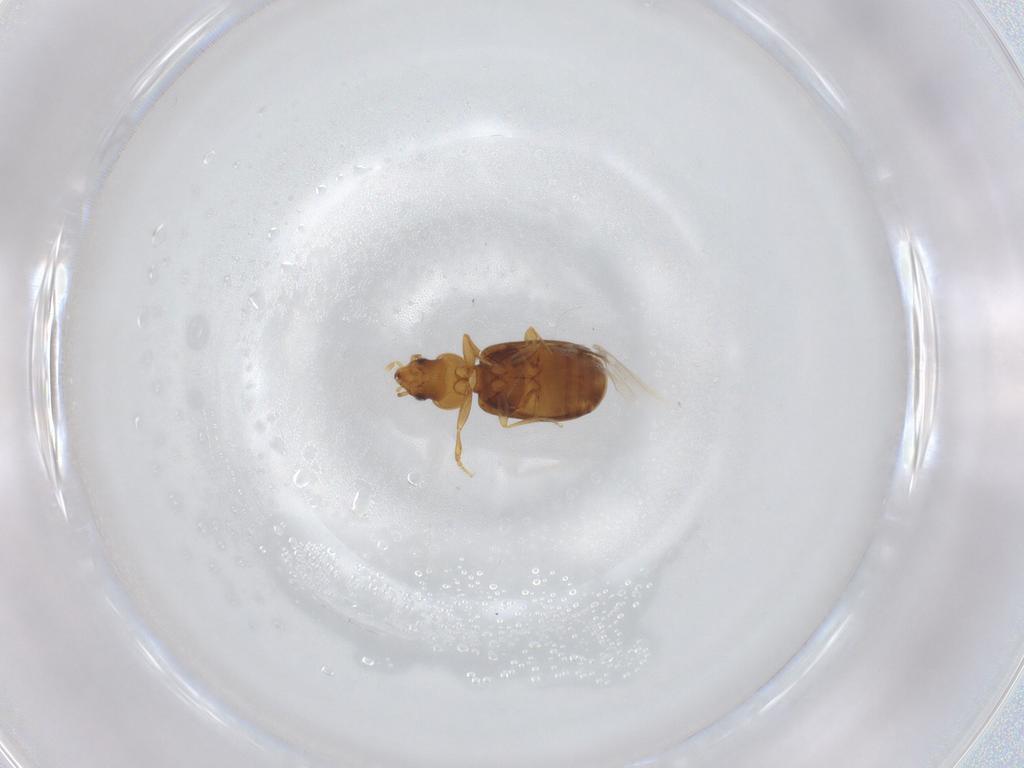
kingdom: Animalia
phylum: Arthropoda
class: Insecta
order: Coleoptera
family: Carabidae
